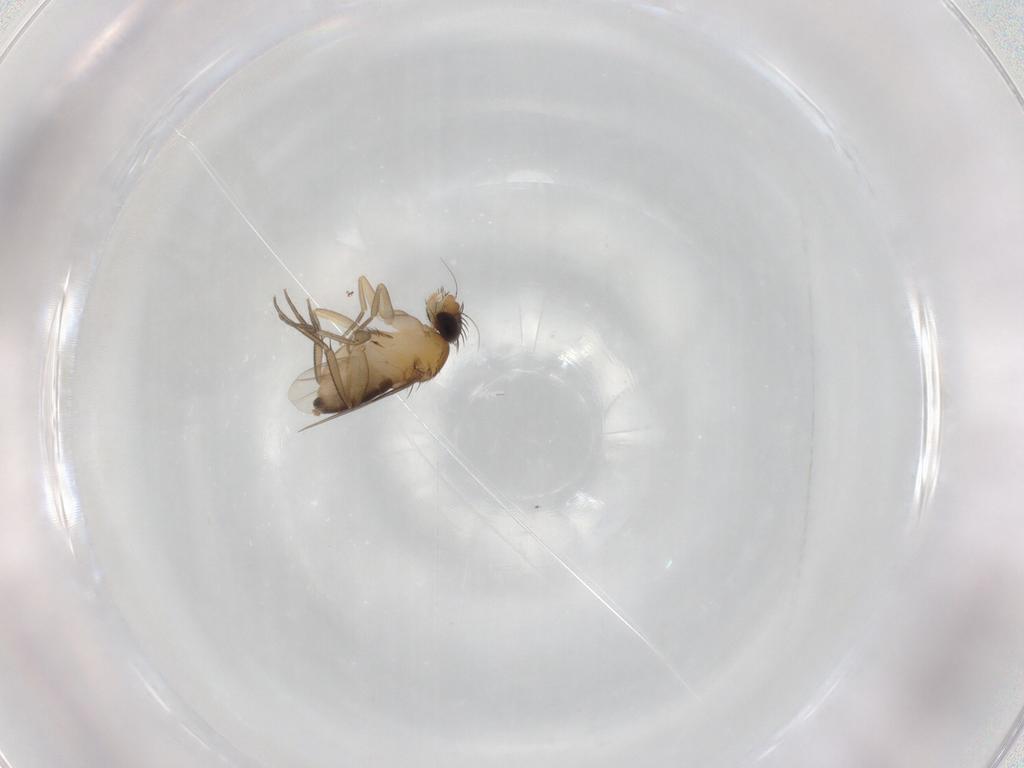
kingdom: Animalia
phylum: Arthropoda
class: Insecta
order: Diptera
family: Phoridae
